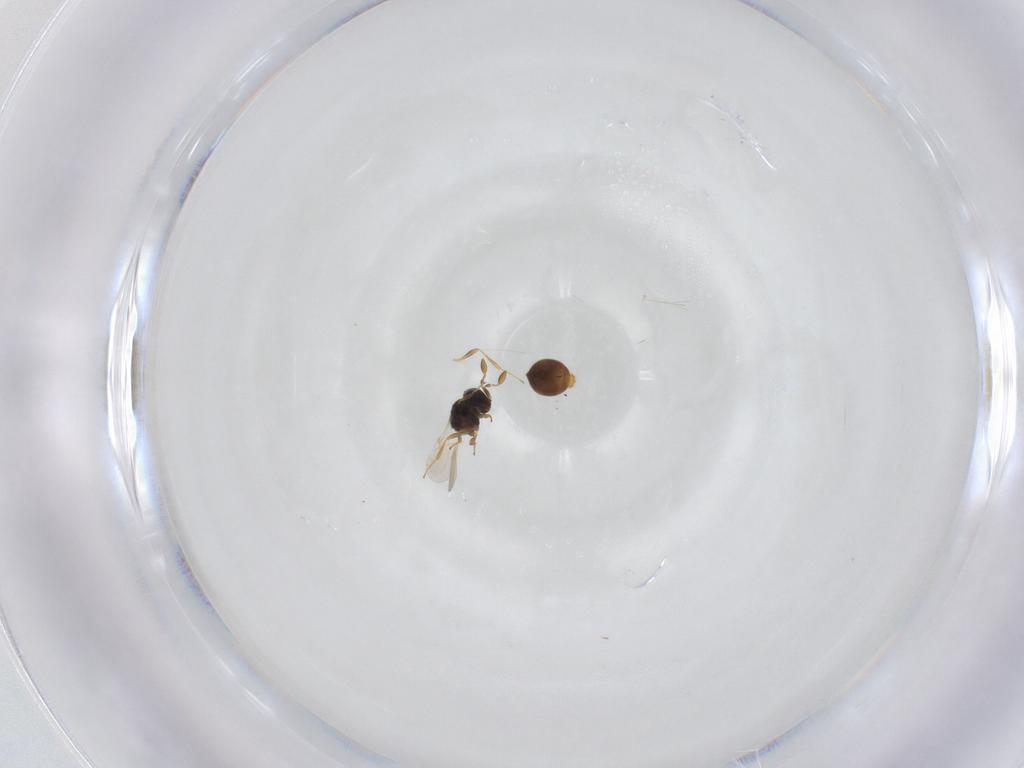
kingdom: Animalia
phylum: Arthropoda
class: Insecta
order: Hymenoptera
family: Scelionidae
